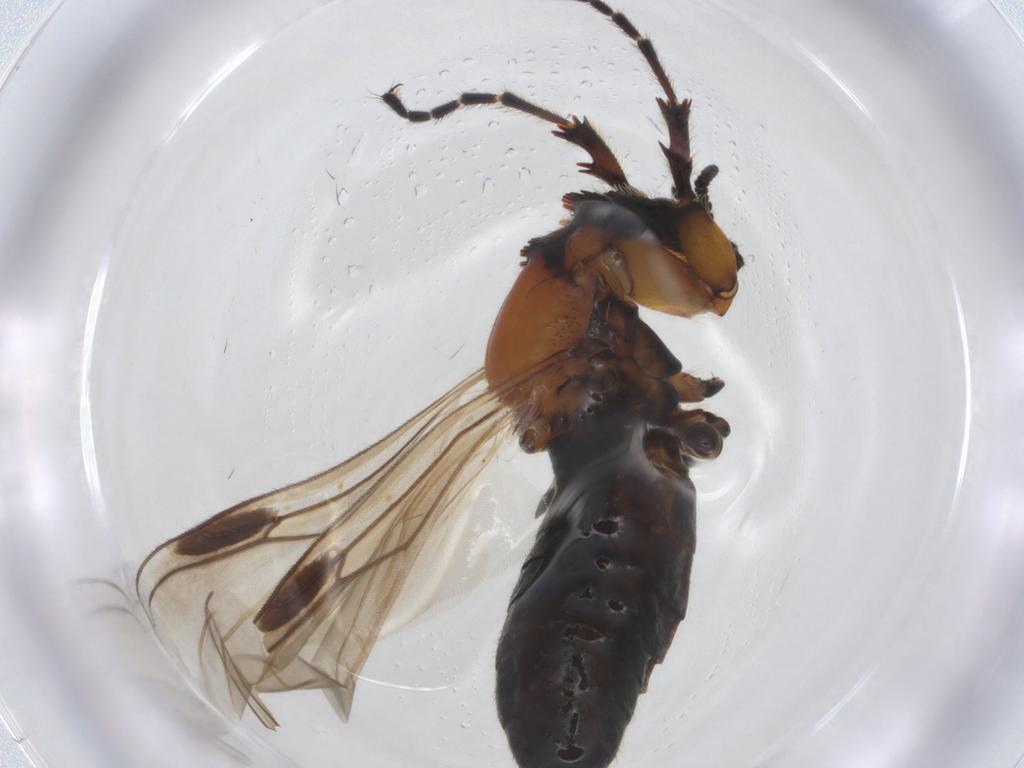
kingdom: Animalia
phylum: Arthropoda
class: Insecta
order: Diptera
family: Bibionidae
